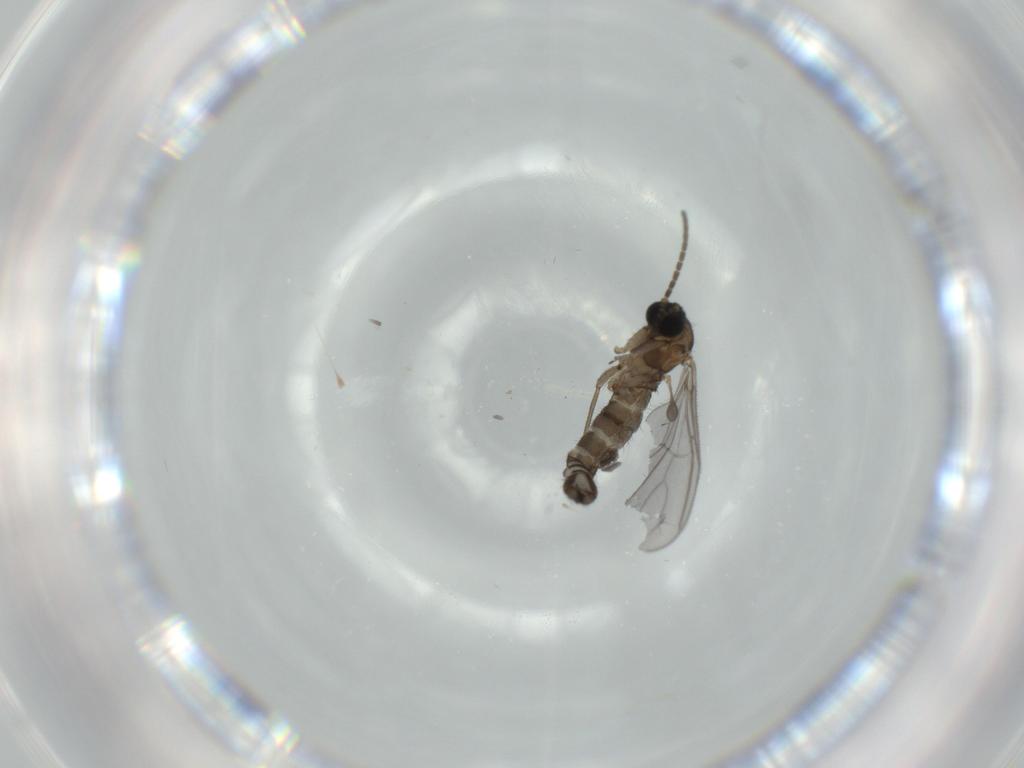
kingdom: Animalia
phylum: Arthropoda
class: Insecta
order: Diptera
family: Sciaridae
